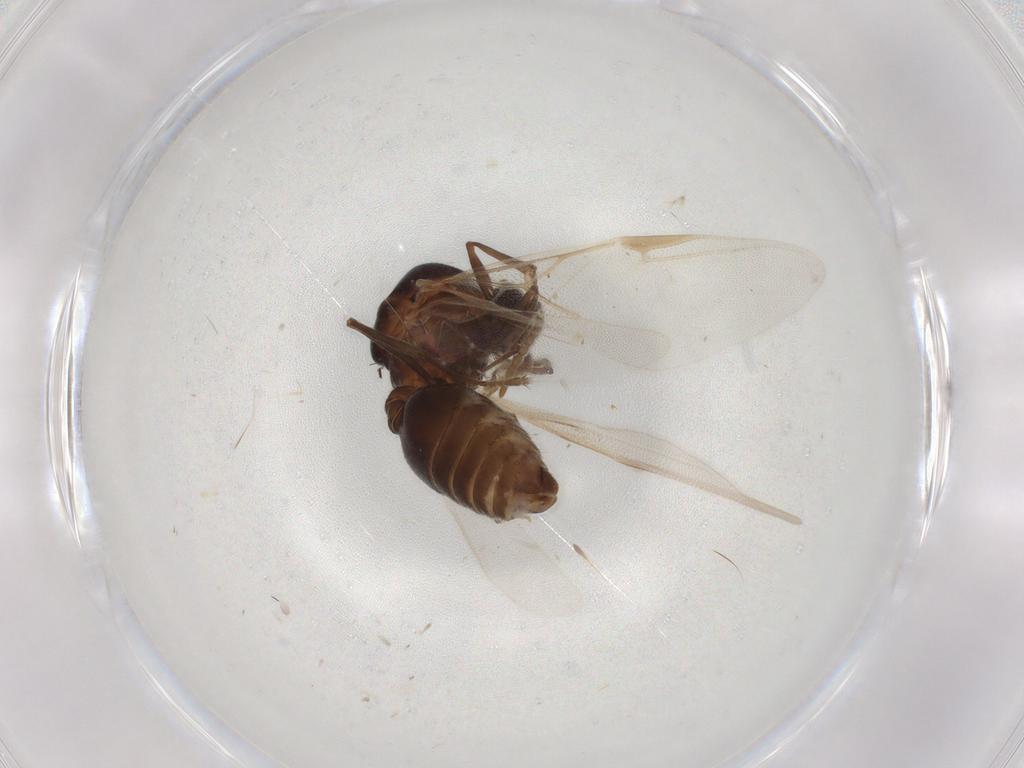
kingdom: Animalia
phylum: Arthropoda
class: Insecta
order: Hymenoptera
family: Formicidae
